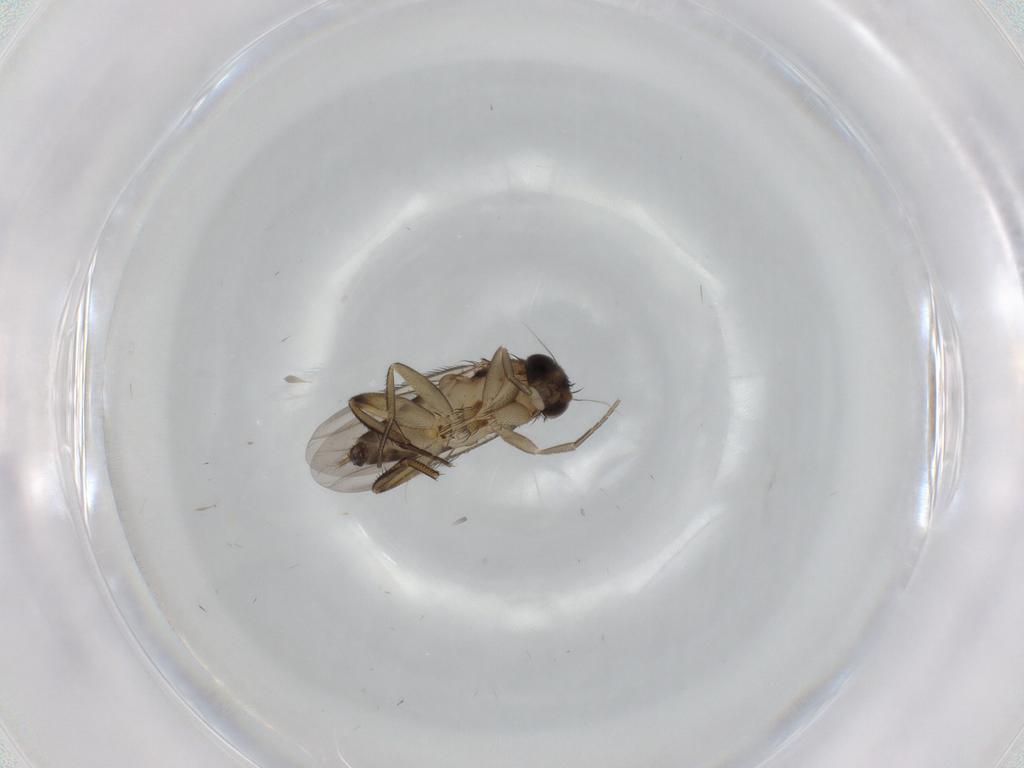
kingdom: Animalia
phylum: Arthropoda
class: Insecta
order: Diptera
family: Phoridae
